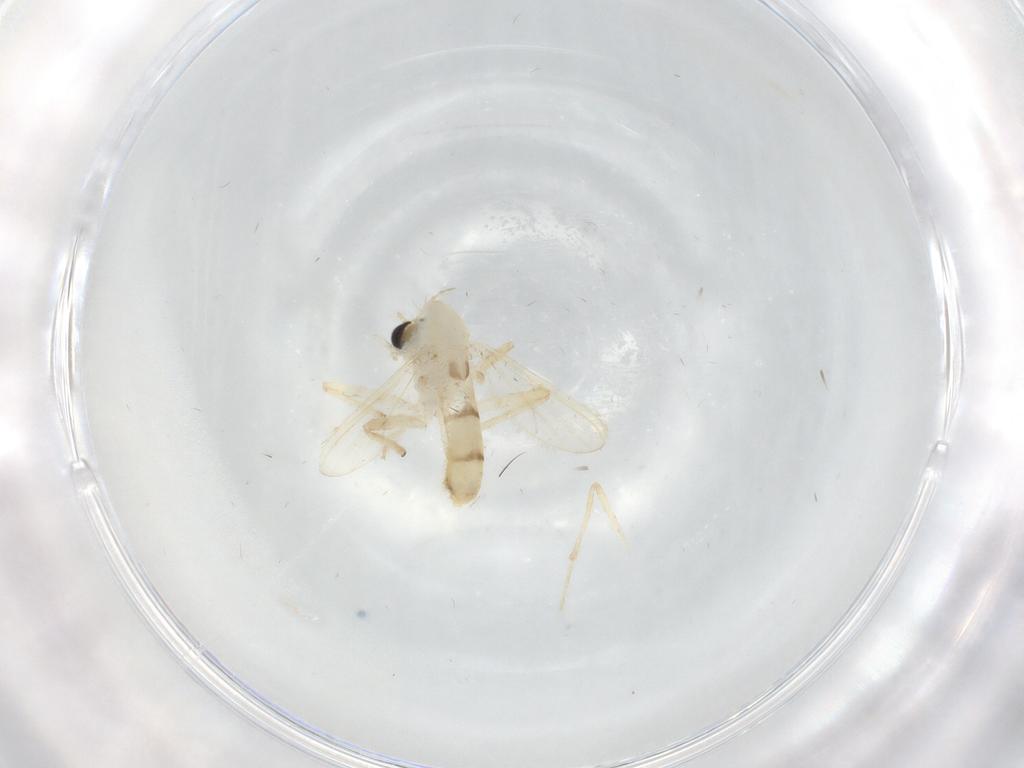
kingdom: Animalia
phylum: Arthropoda
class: Insecta
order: Diptera
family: Chironomidae
